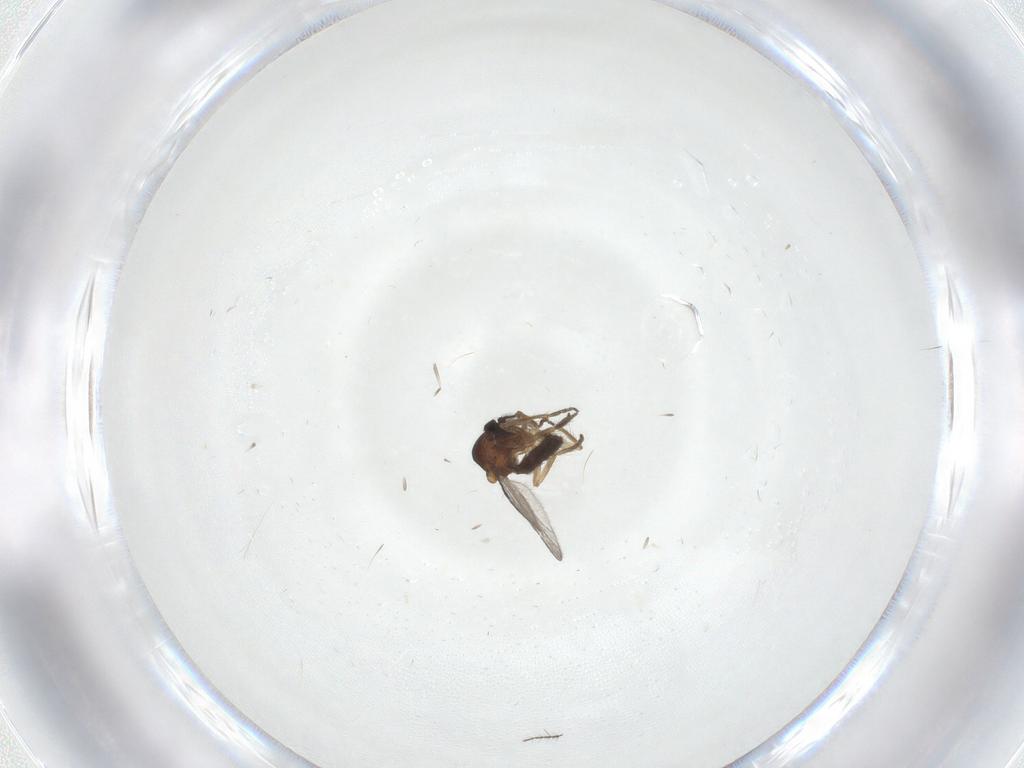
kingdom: Animalia
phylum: Arthropoda
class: Insecta
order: Diptera
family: Ceratopogonidae
